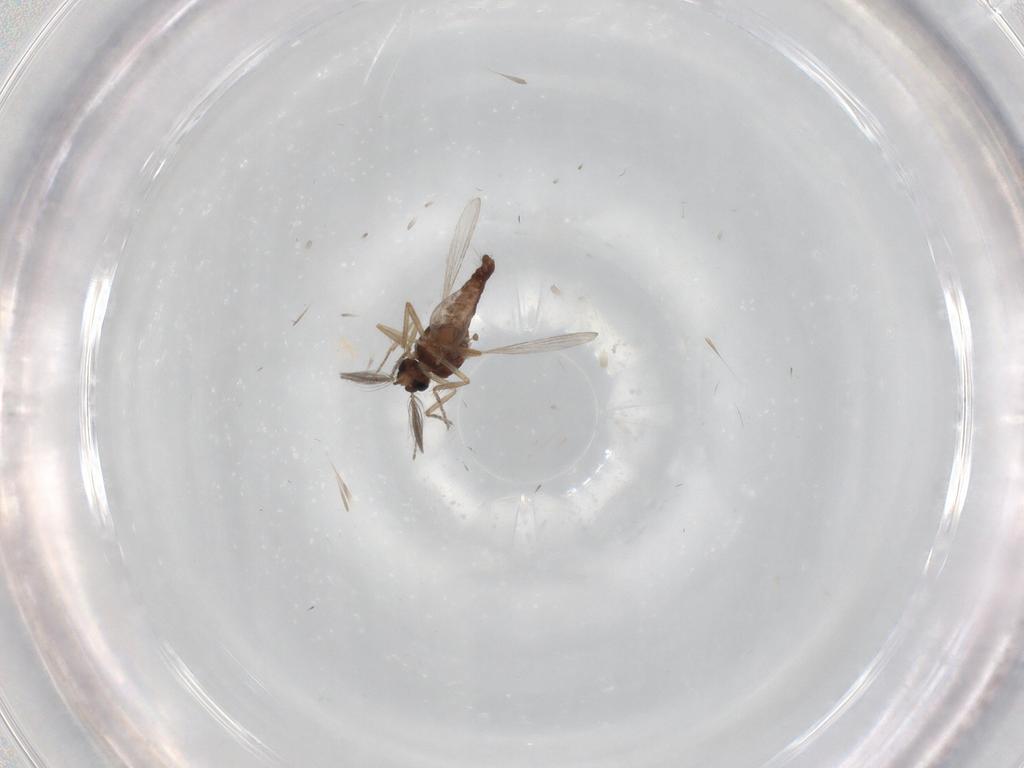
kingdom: Animalia
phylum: Arthropoda
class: Insecta
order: Diptera
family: Ceratopogonidae
